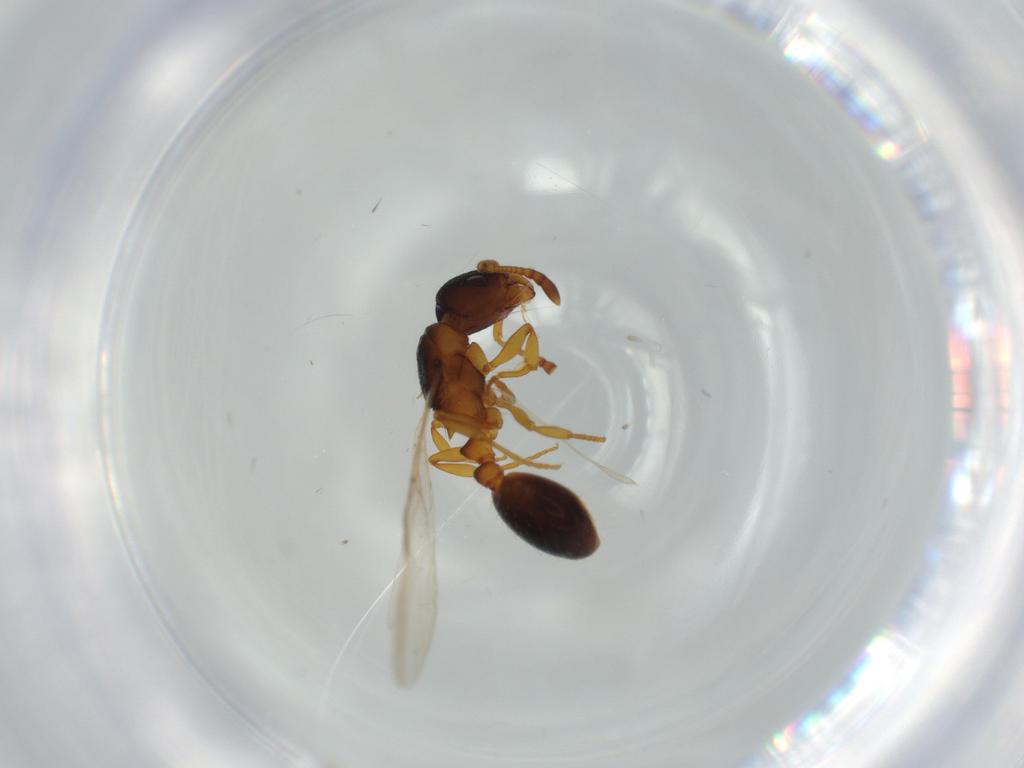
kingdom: Animalia
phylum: Arthropoda
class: Insecta
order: Hymenoptera
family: Formicidae
